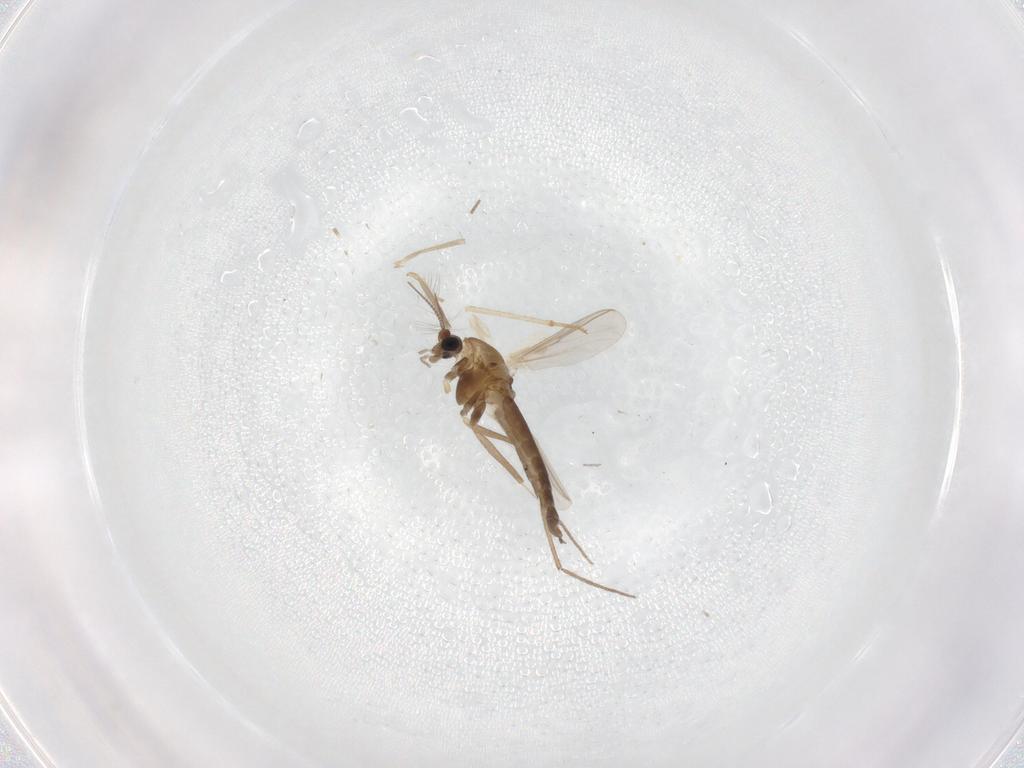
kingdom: Animalia
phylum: Arthropoda
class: Insecta
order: Diptera
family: Chironomidae
